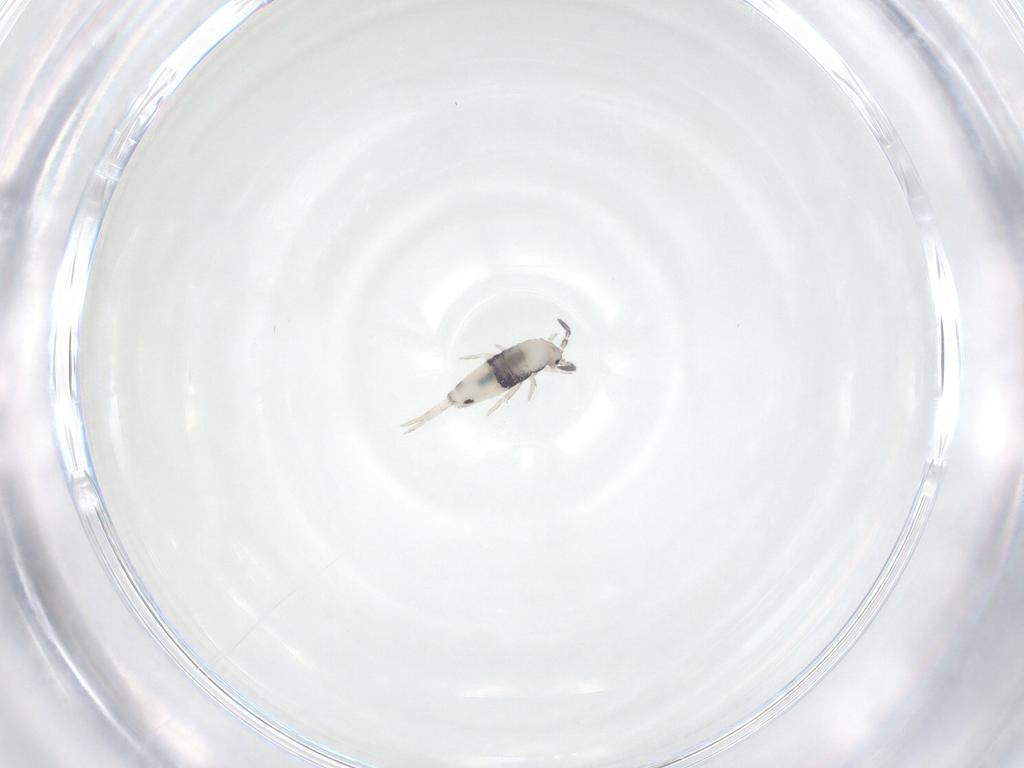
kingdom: Animalia
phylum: Arthropoda
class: Collembola
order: Entomobryomorpha
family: Entomobryidae
